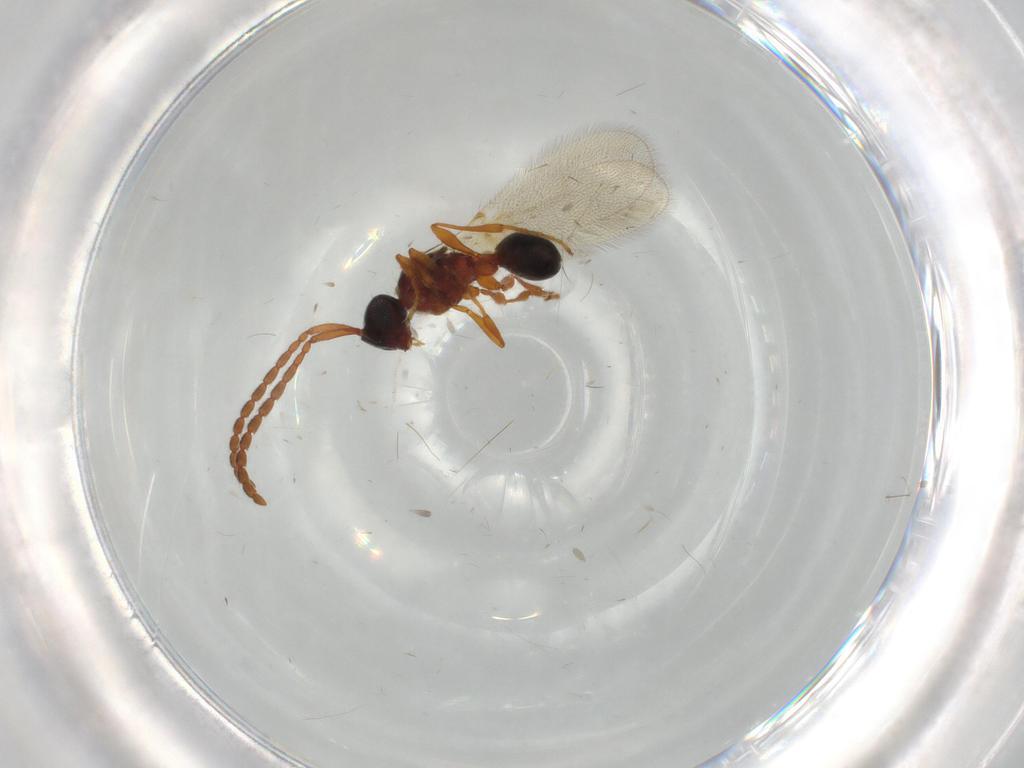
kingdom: Animalia
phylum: Arthropoda
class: Insecta
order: Hymenoptera
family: Diapriidae
